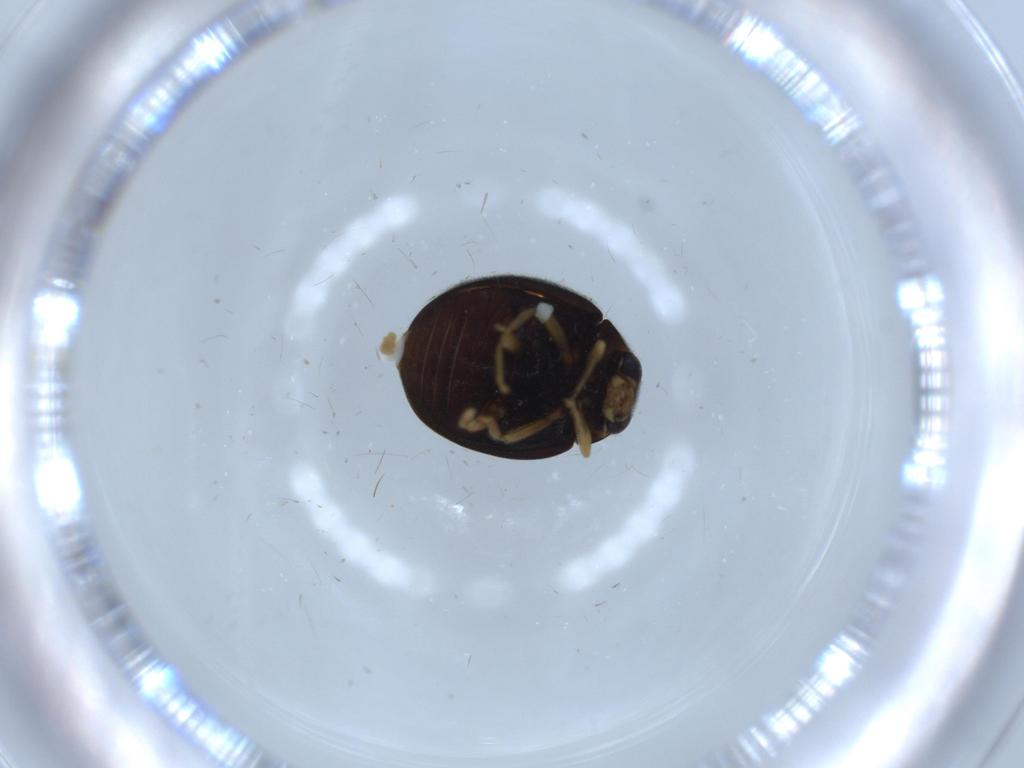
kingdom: Animalia
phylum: Arthropoda
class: Insecta
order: Coleoptera
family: Coccinellidae
